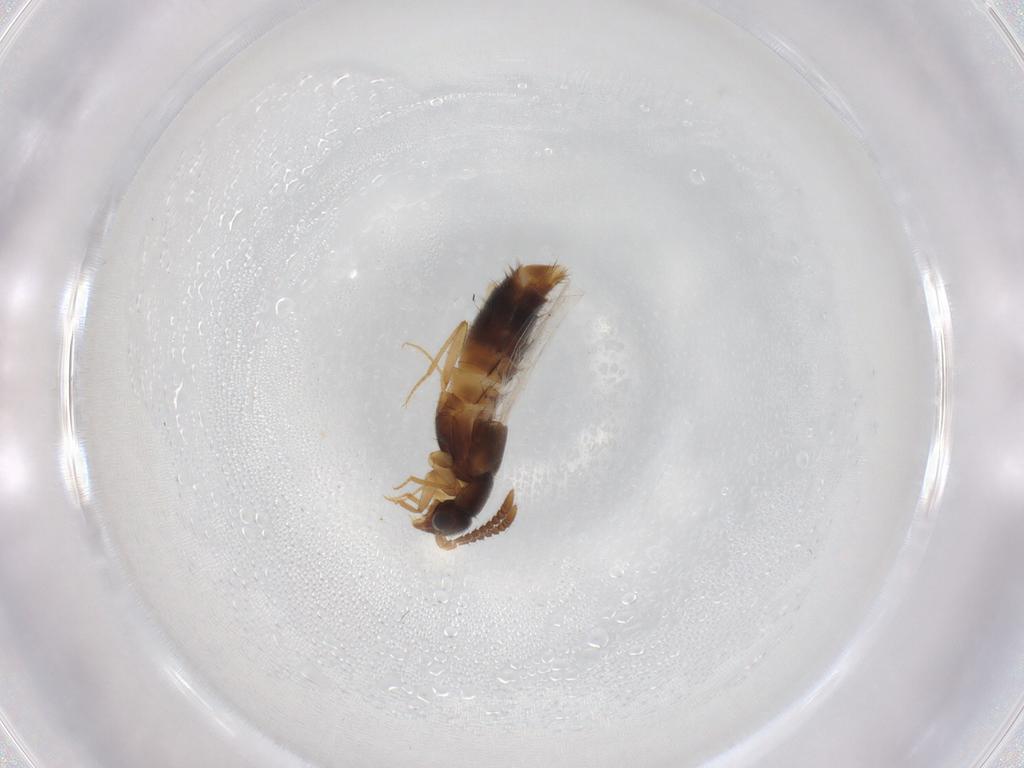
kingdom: Animalia
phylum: Arthropoda
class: Insecta
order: Coleoptera
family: Staphylinidae
